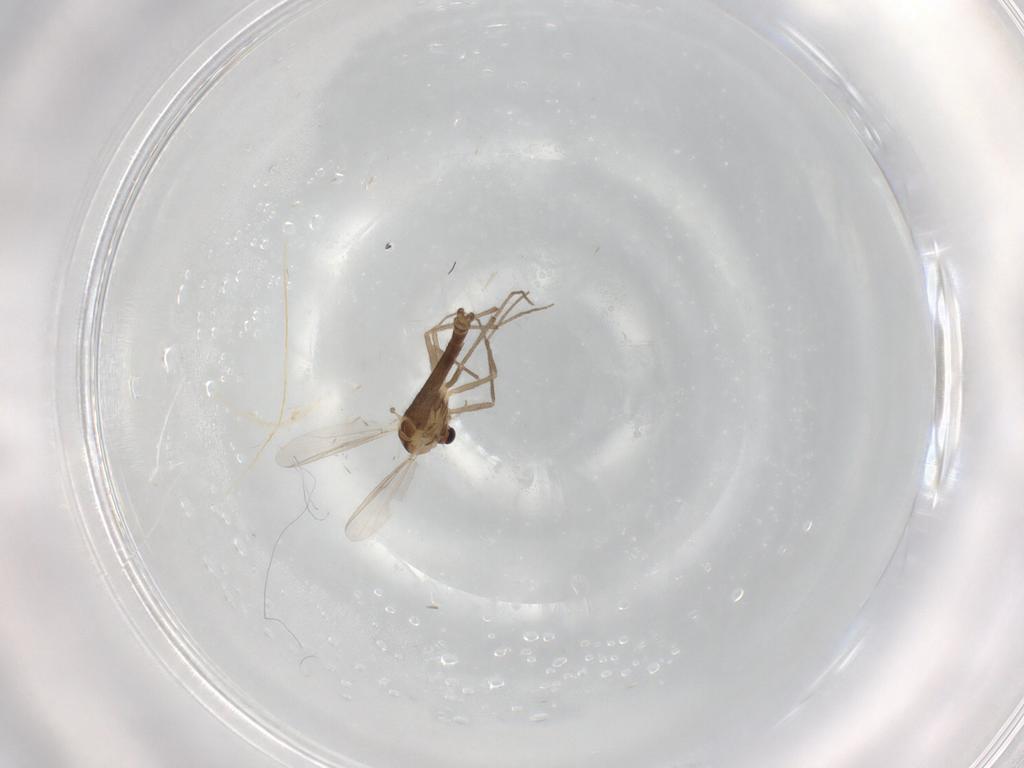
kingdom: Animalia
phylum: Arthropoda
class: Insecta
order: Diptera
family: Chironomidae
